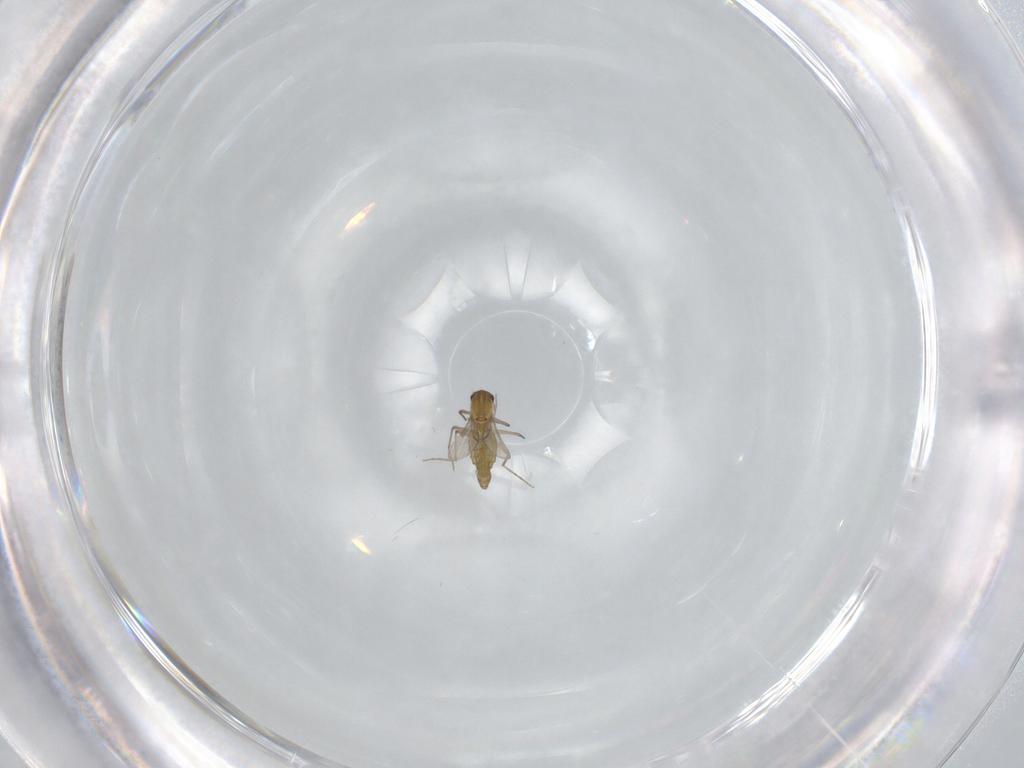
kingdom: Animalia
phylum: Arthropoda
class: Insecta
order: Diptera
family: Chironomidae
